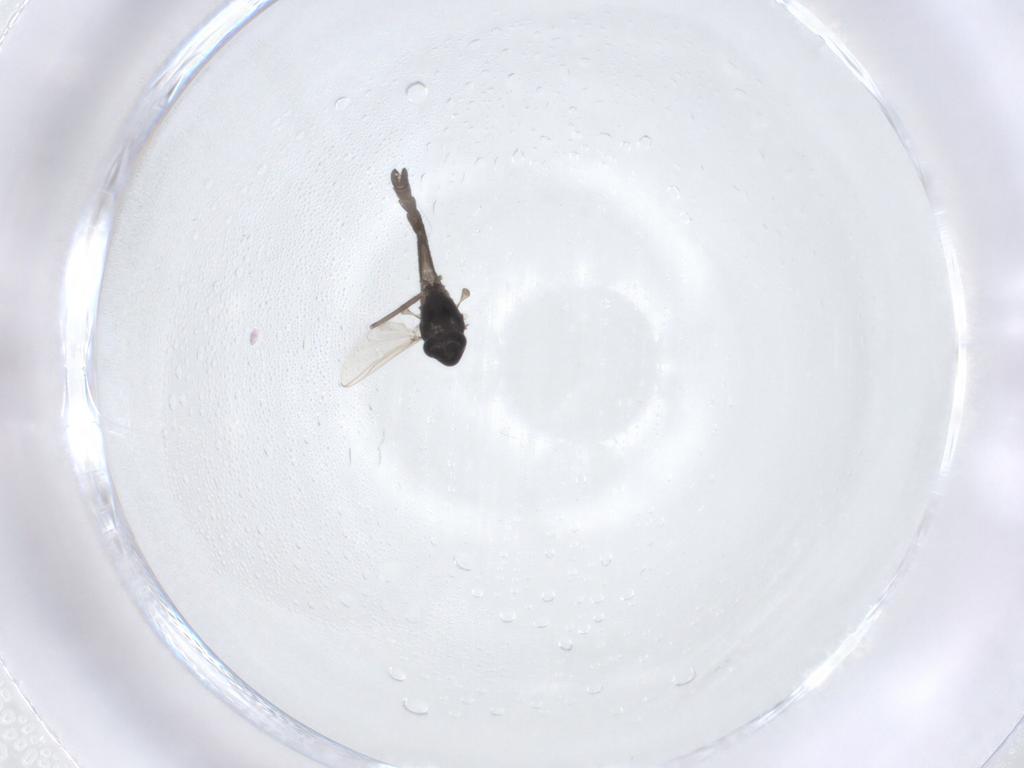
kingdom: Animalia
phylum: Arthropoda
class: Insecta
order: Diptera
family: Chironomidae
